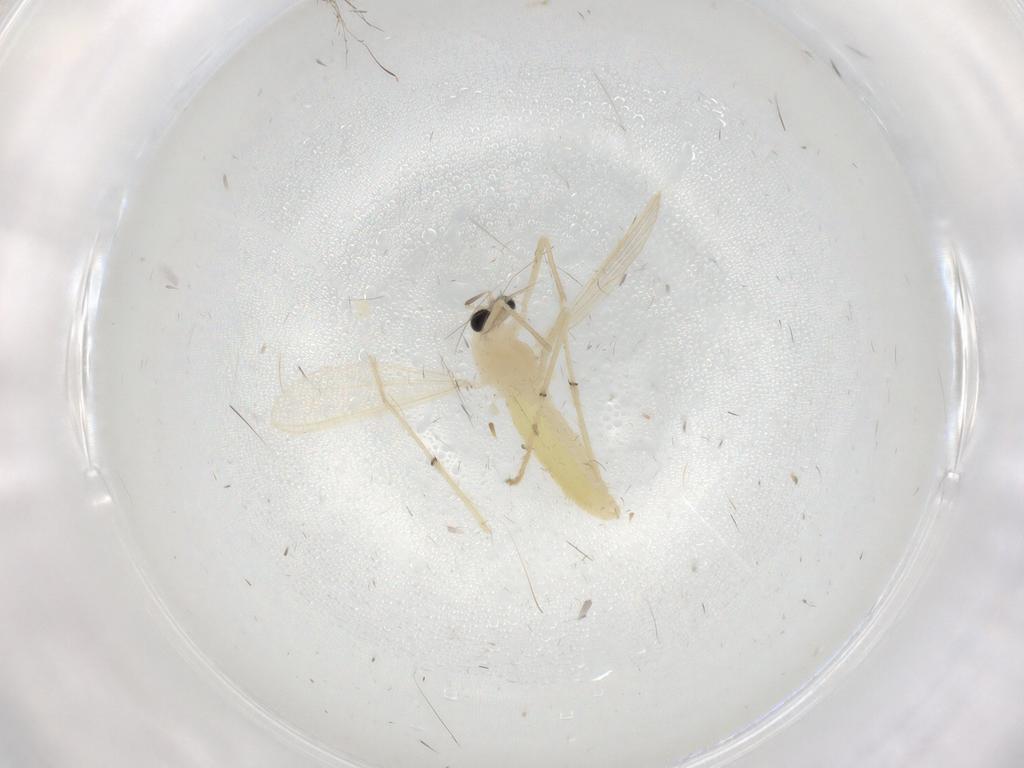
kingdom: Animalia
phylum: Arthropoda
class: Insecta
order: Diptera
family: Chironomidae
